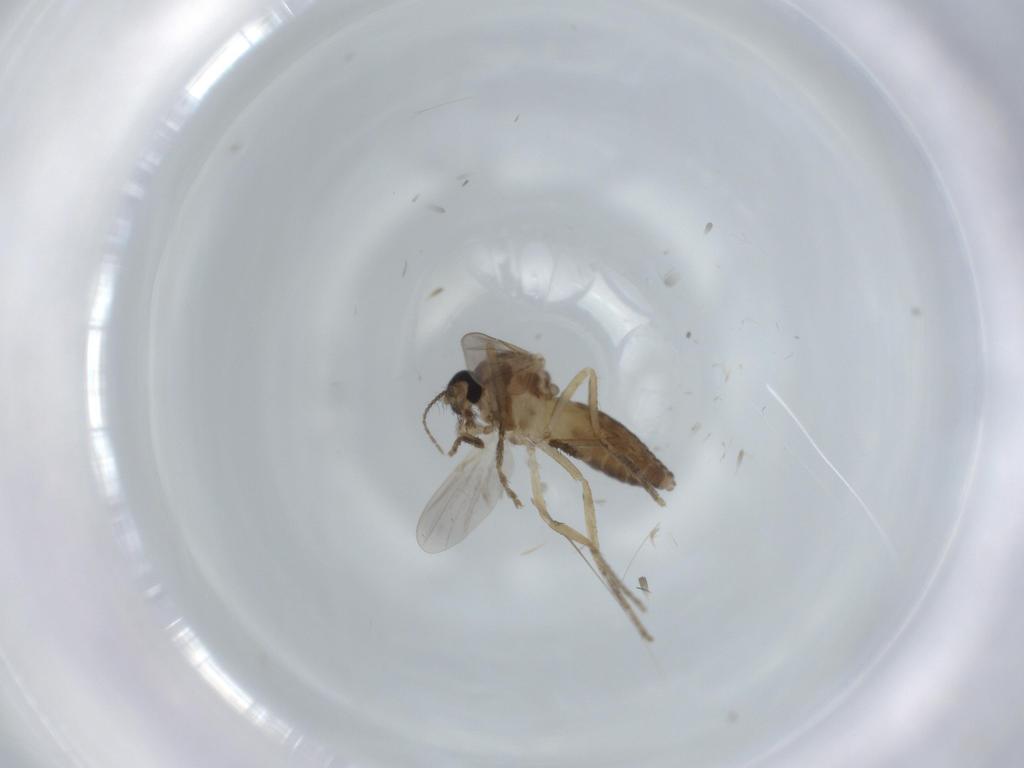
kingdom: Animalia
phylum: Arthropoda
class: Insecta
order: Diptera
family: Ceratopogonidae
